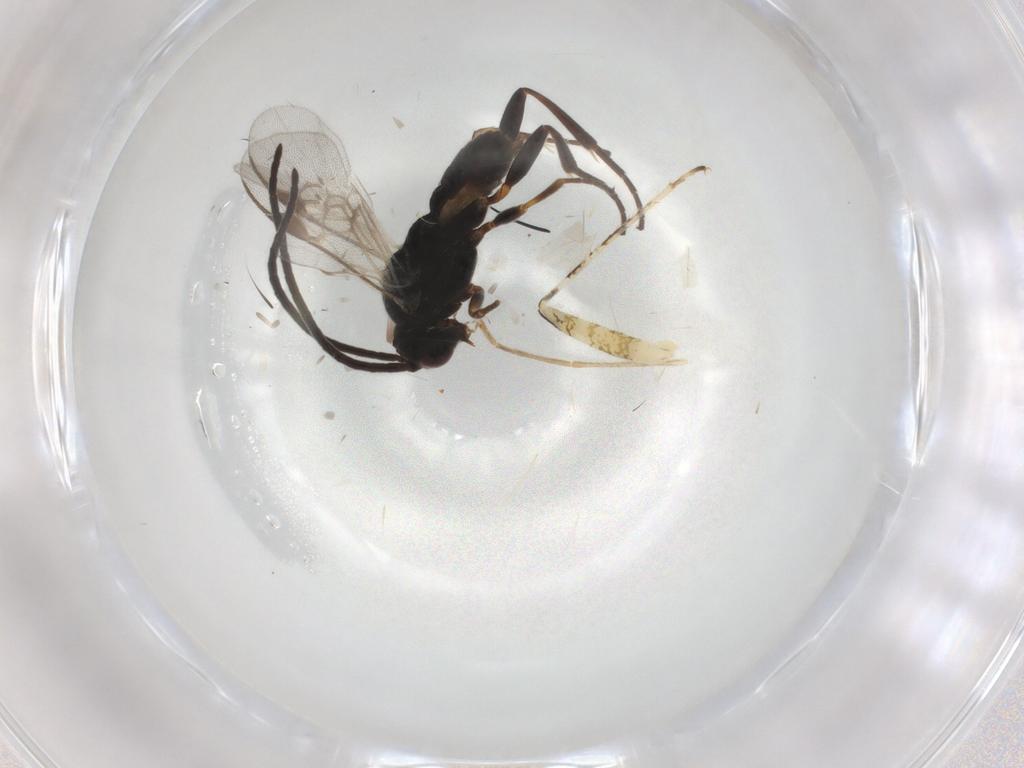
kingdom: Animalia
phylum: Arthropoda
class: Insecta
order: Hymenoptera
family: Braconidae
